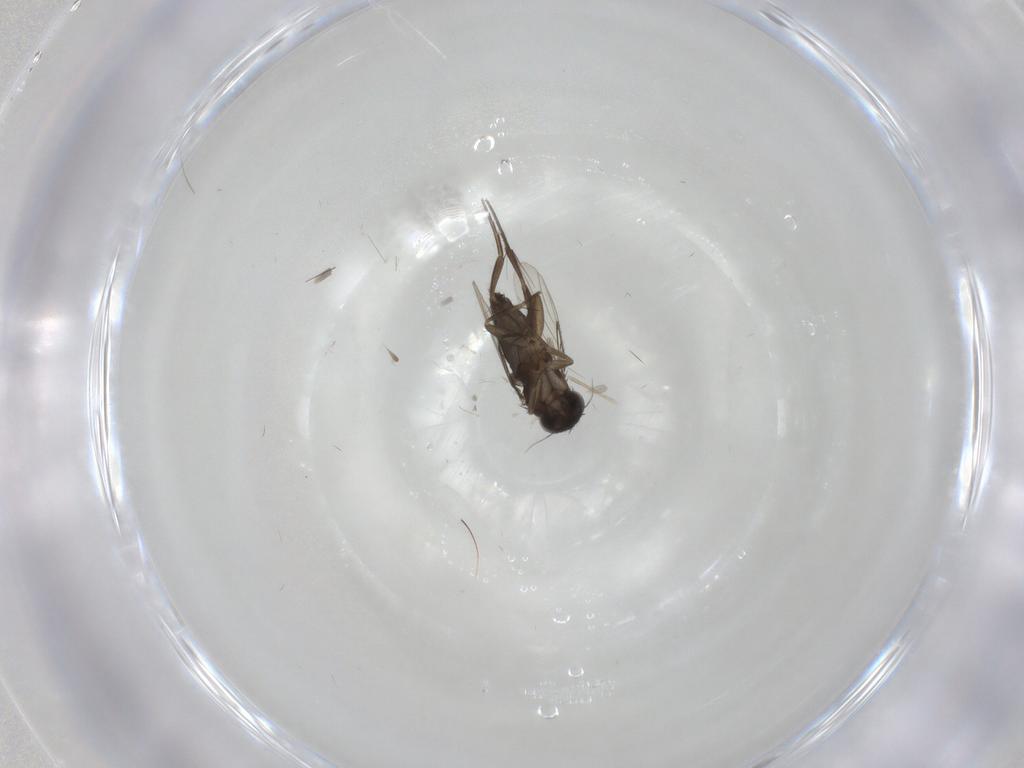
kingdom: Animalia
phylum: Arthropoda
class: Insecta
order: Diptera
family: Phoridae
